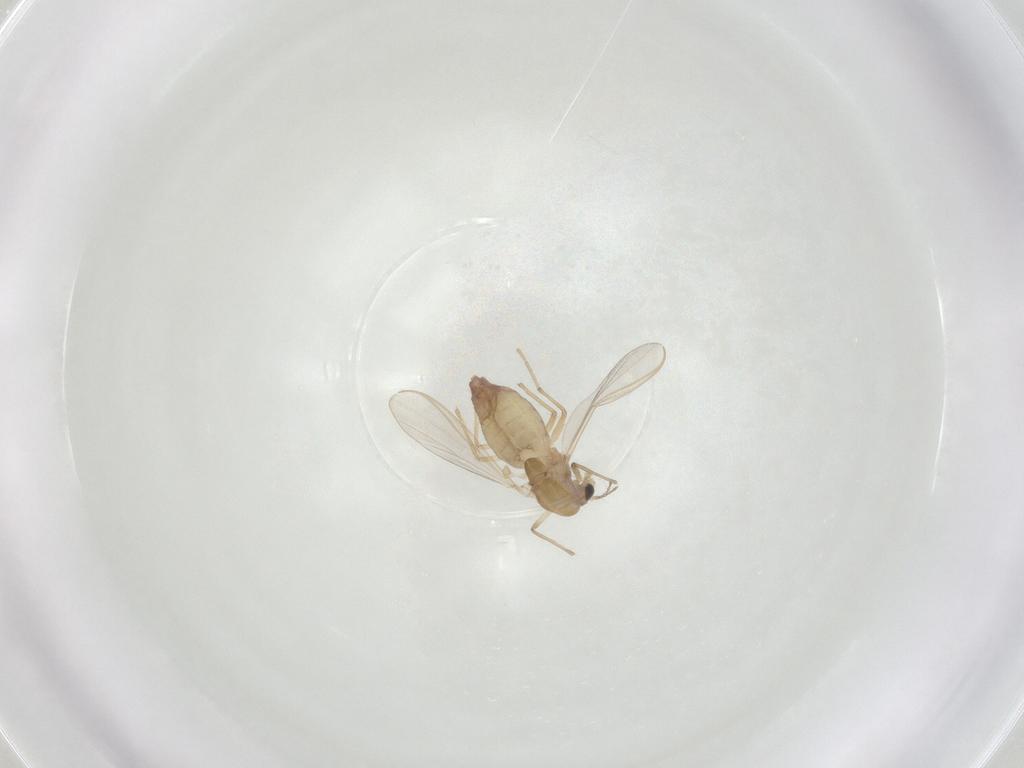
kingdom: Animalia
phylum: Arthropoda
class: Insecta
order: Diptera
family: Chironomidae
